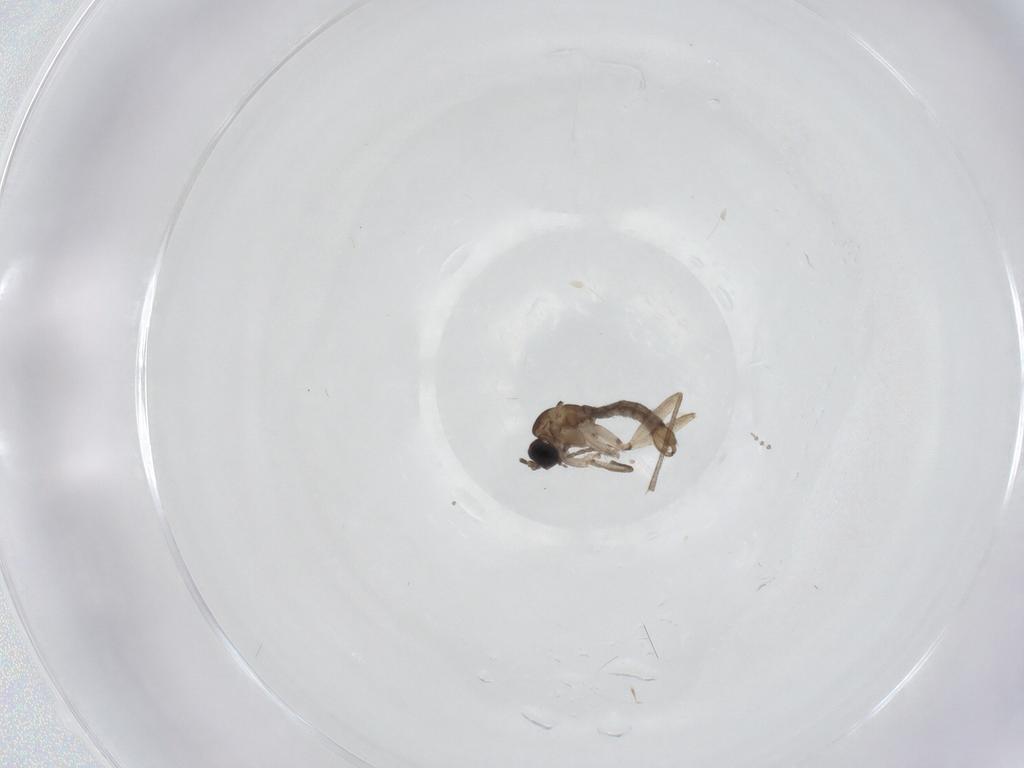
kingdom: Animalia
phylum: Arthropoda
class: Insecta
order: Diptera
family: Sciaridae
